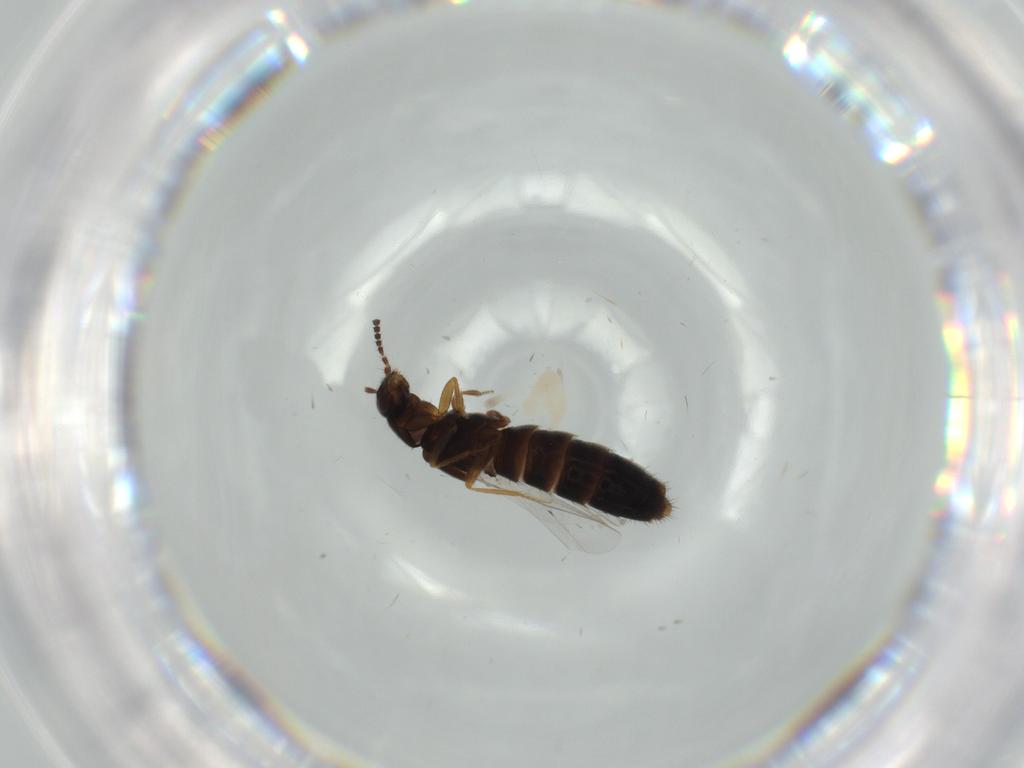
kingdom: Animalia
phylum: Arthropoda
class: Insecta
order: Coleoptera
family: Chrysomelidae
